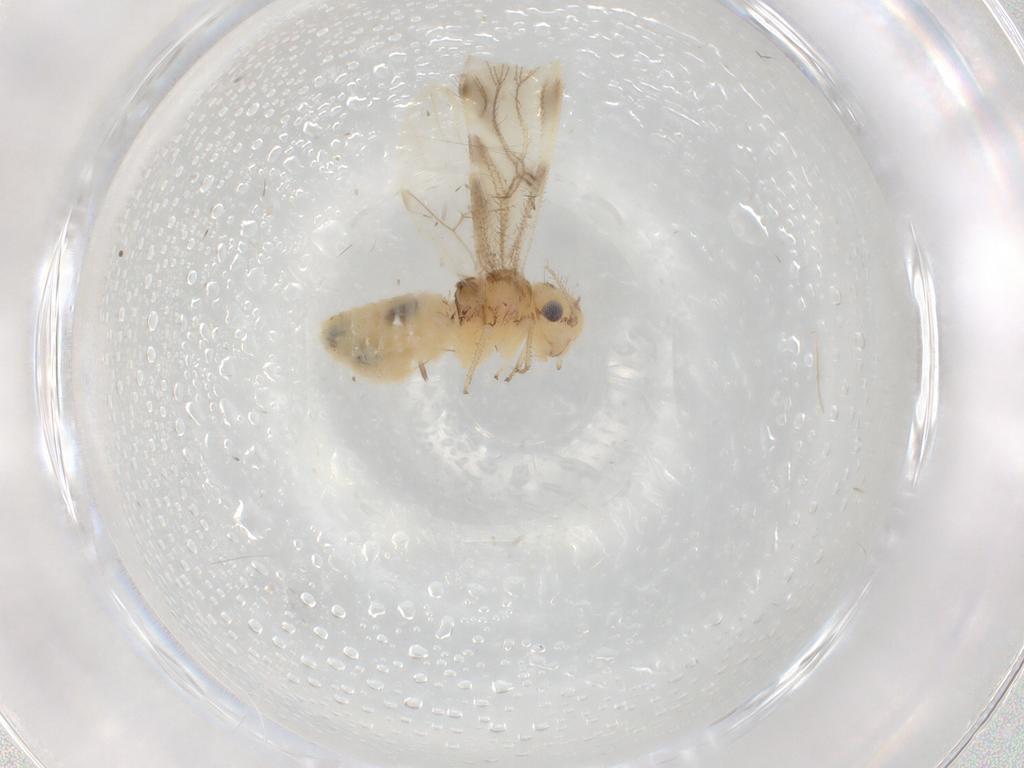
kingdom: Animalia
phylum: Arthropoda
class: Insecta
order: Psocodea
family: Pseudocaeciliidae
